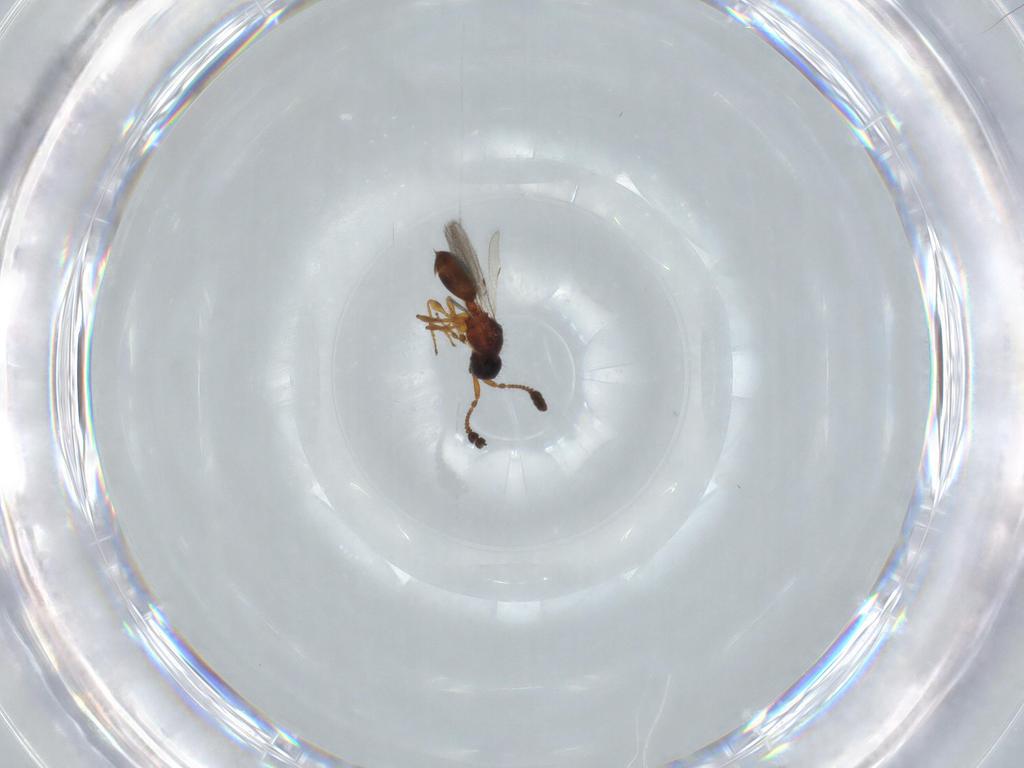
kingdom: Animalia
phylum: Arthropoda
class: Insecta
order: Hymenoptera
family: Diapriidae
